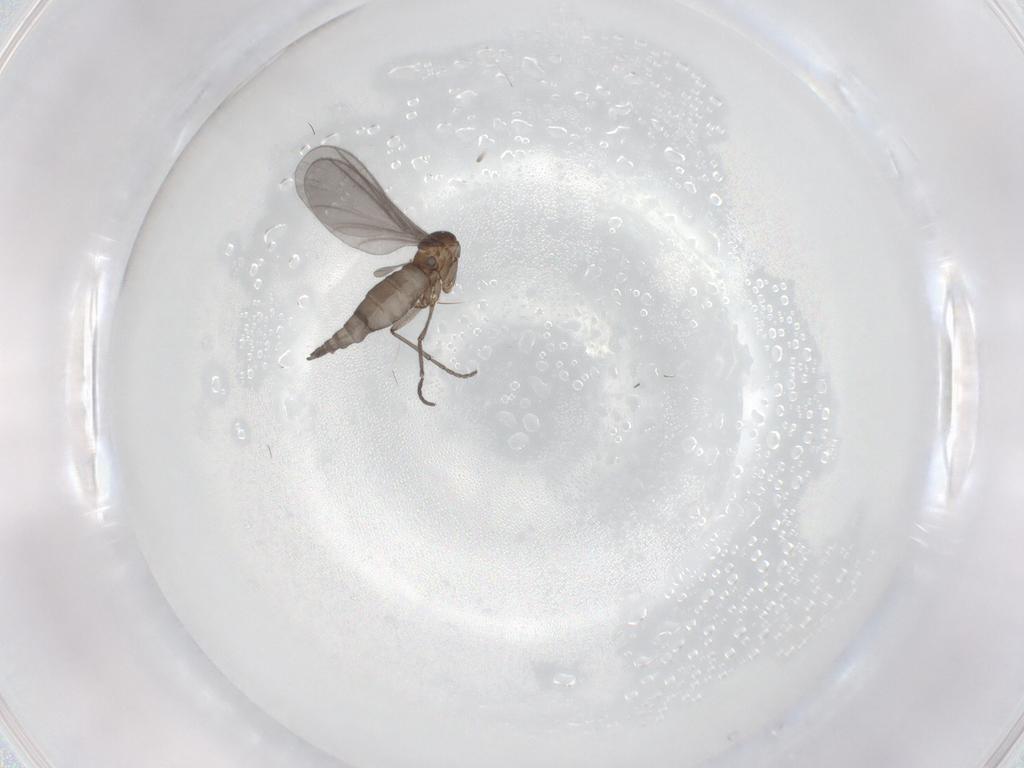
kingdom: Animalia
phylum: Arthropoda
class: Insecta
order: Diptera
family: Sciaridae
